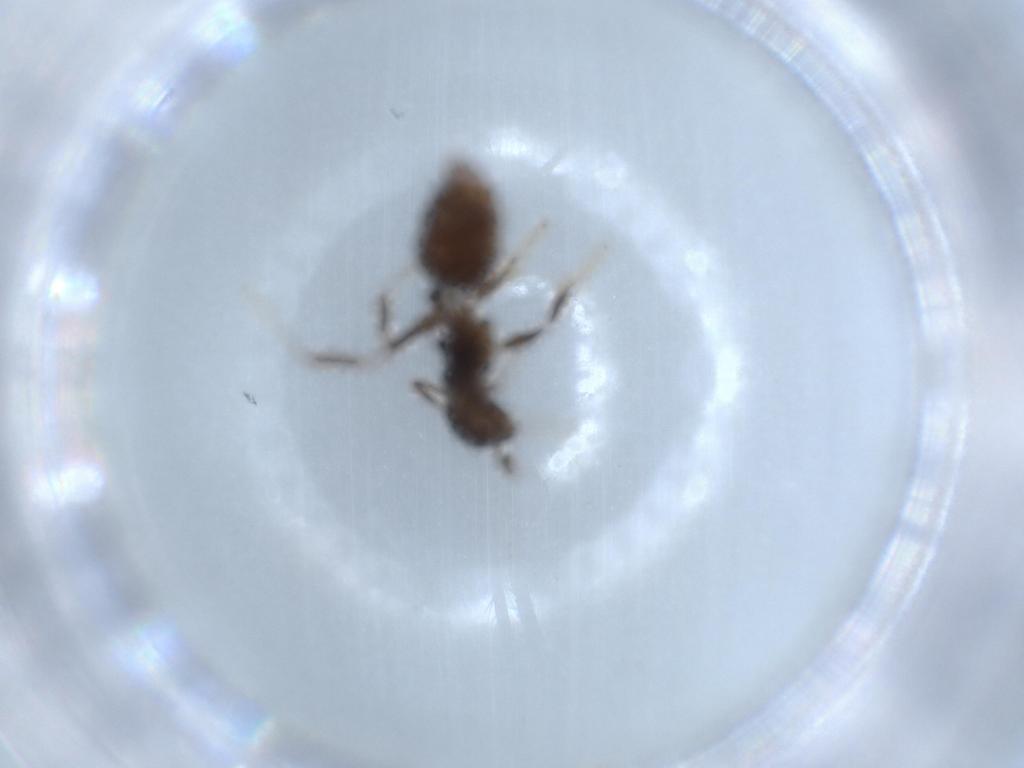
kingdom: Animalia
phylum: Arthropoda
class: Insecta
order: Hymenoptera
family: Formicidae
